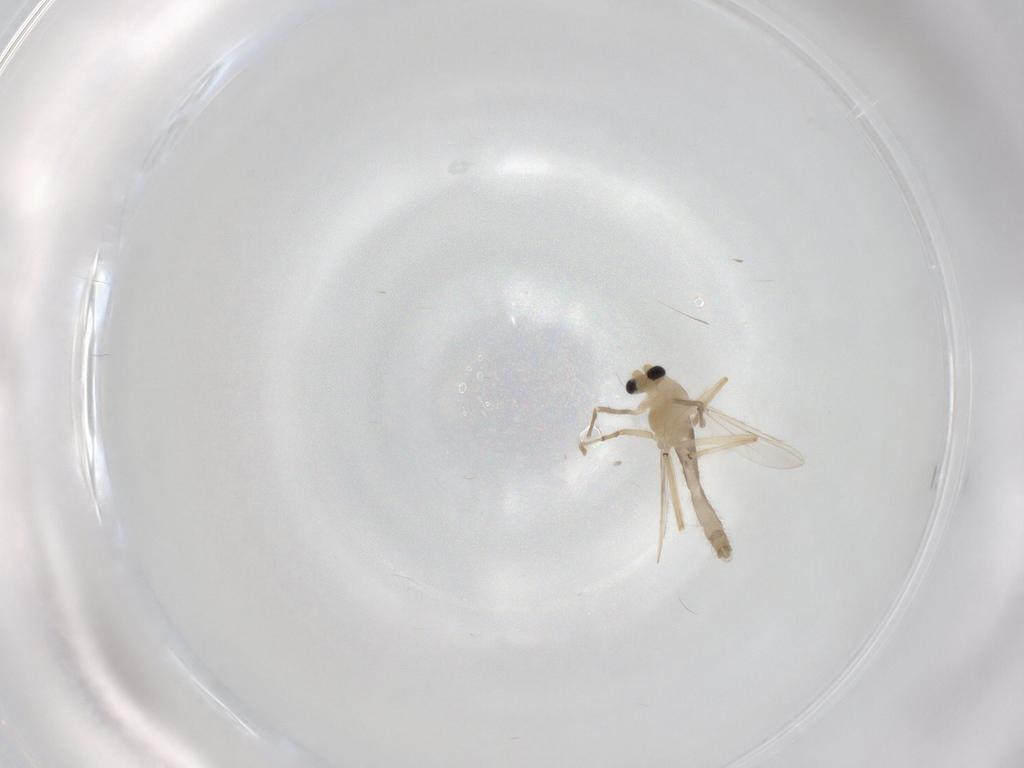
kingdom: Animalia
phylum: Arthropoda
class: Insecta
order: Diptera
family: Chironomidae
